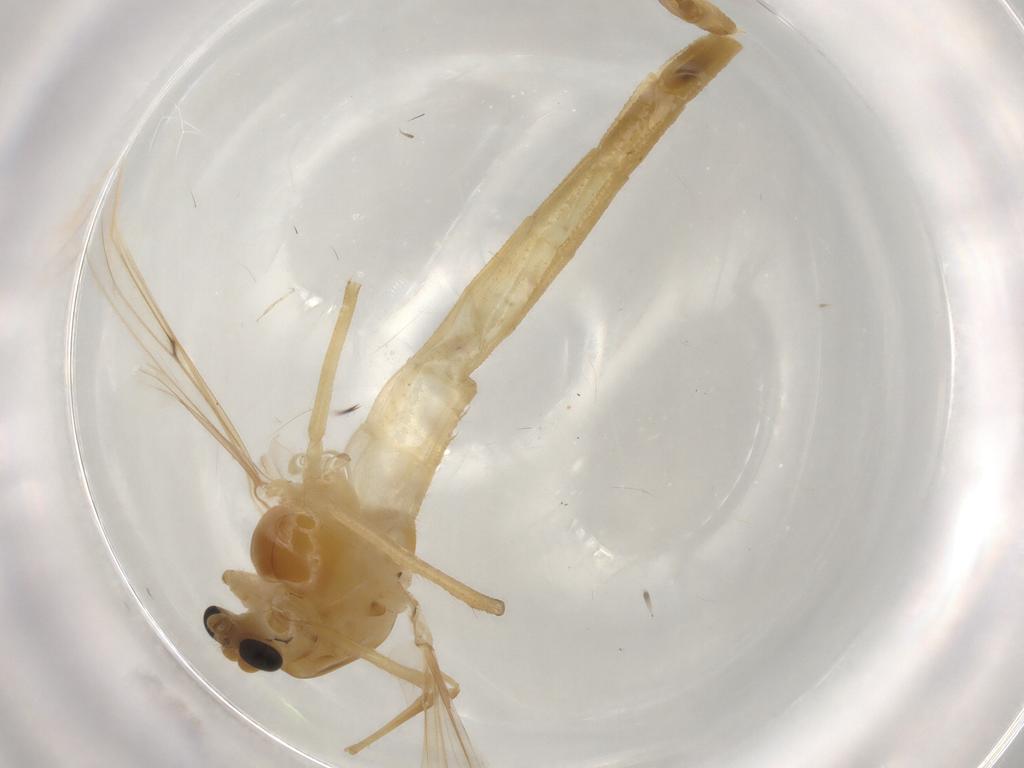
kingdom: Animalia
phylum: Arthropoda
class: Insecta
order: Diptera
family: Chironomidae
